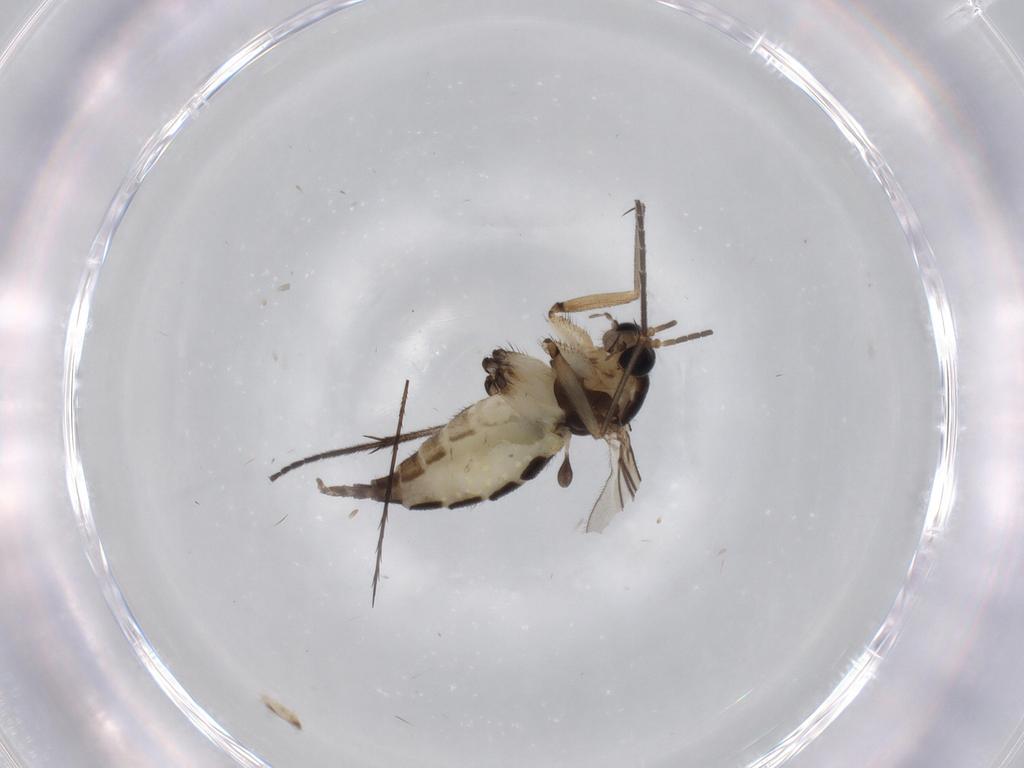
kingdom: Animalia
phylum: Arthropoda
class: Insecta
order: Diptera
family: Sciaridae
